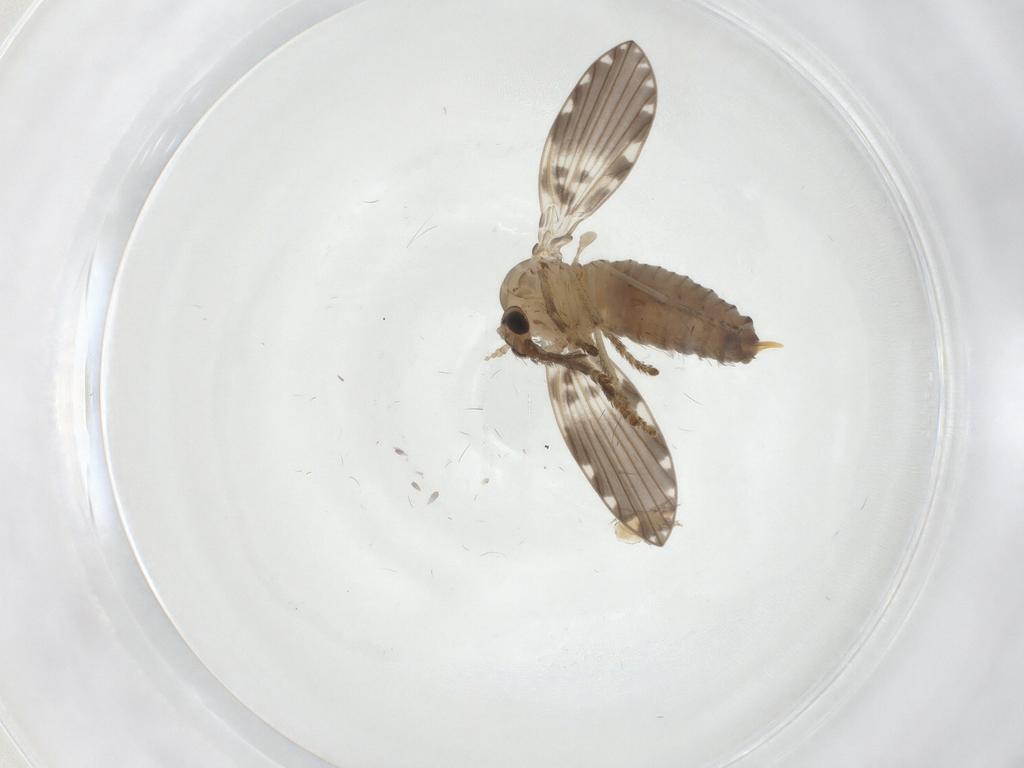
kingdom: Animalia
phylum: Arthropoda
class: Insecta
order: Diptera
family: Psychodidae
